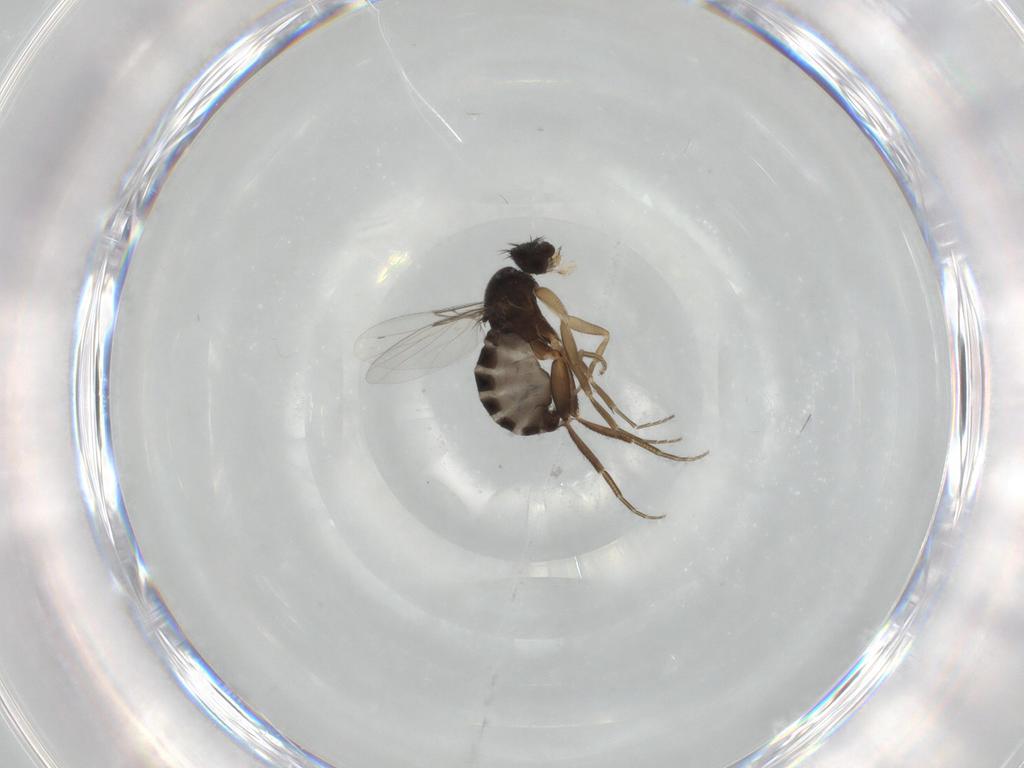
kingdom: Animalia
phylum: Arthropoda
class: Insecta
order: Diptera
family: Phoridae
